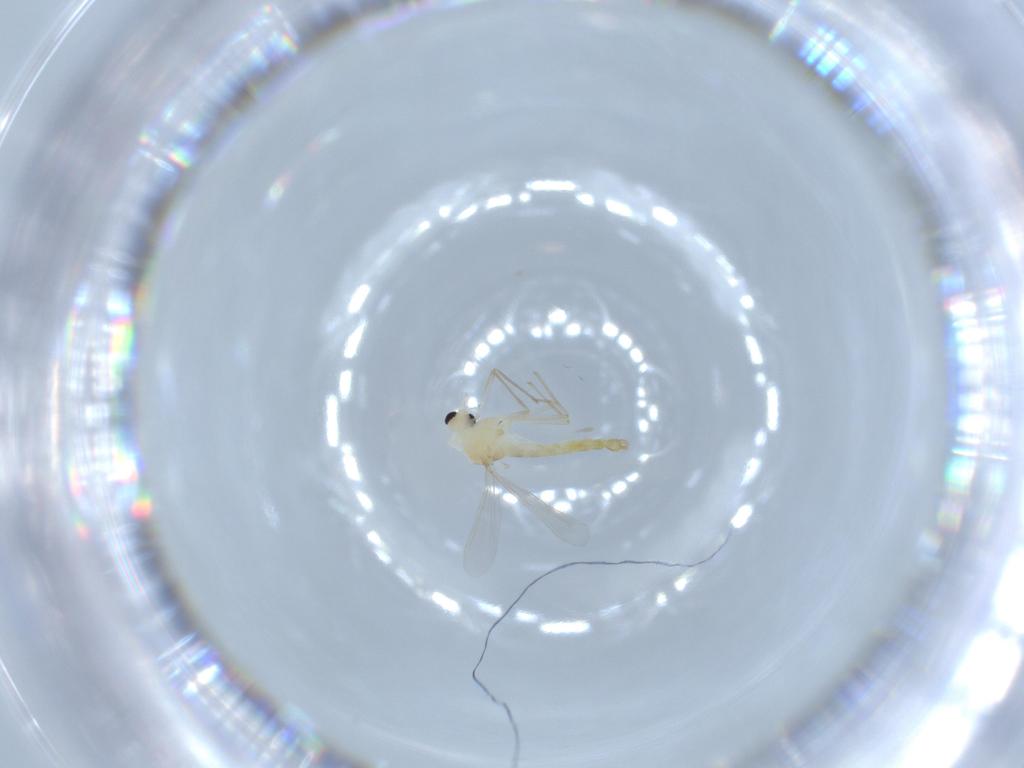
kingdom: Animalia
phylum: Arthropoda
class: Insecta
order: Diptera
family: Chironomidae
